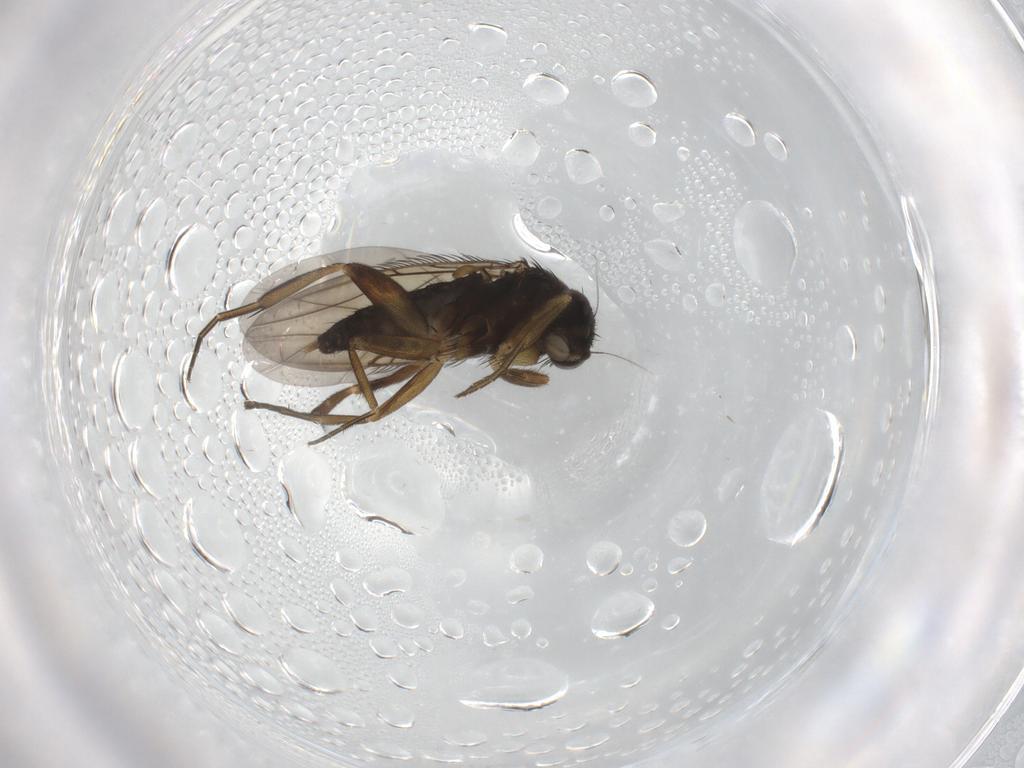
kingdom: Animalia
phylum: Arthropoda
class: Insecta
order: Diptera
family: Phoridae
